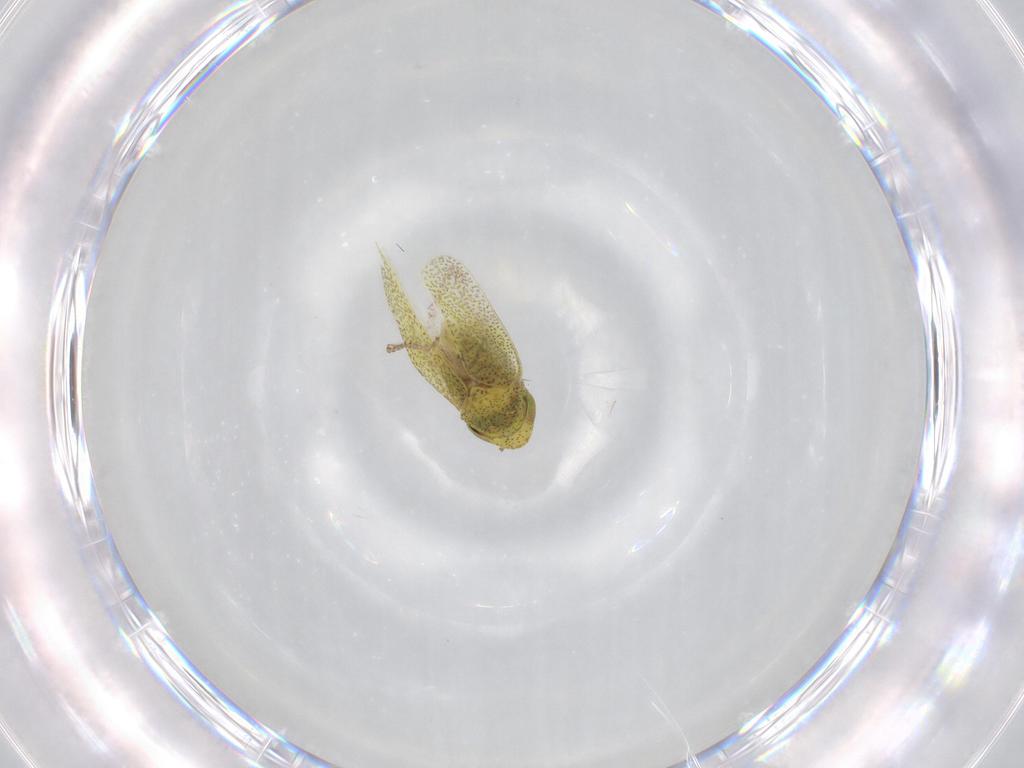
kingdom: Animalia
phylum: Arthropoda
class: Insecta
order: Hemiptera
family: Cicadellidae
